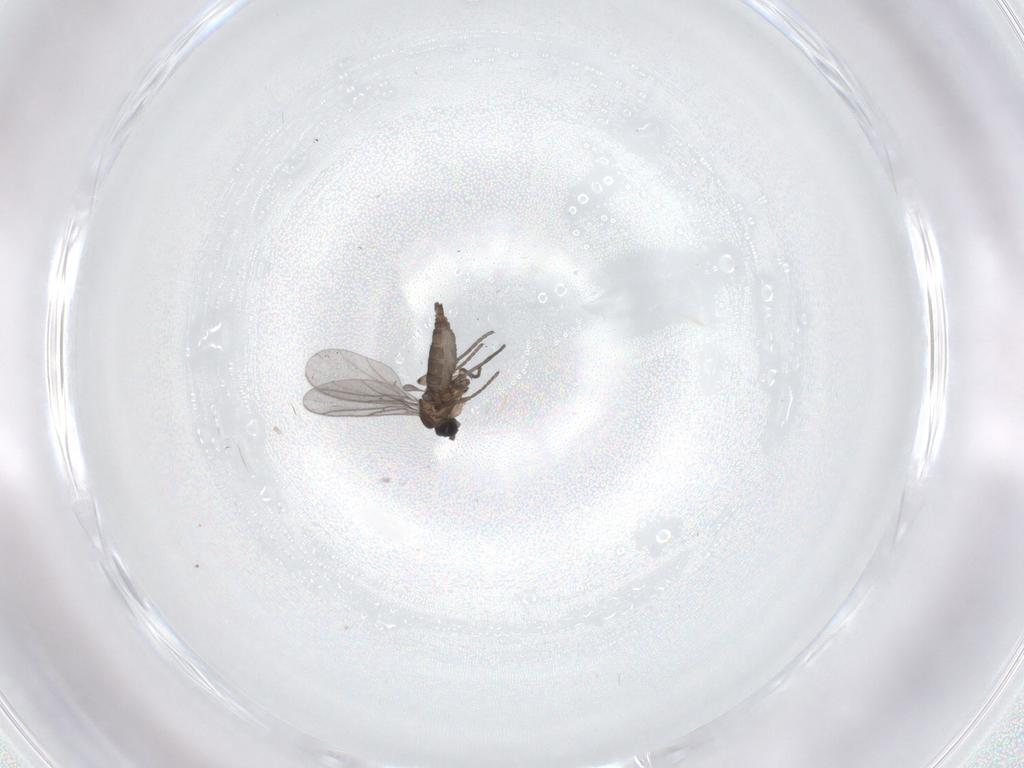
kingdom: Animalia
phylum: Arthropoda
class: Insecta
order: Diptera
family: Sciaridae
